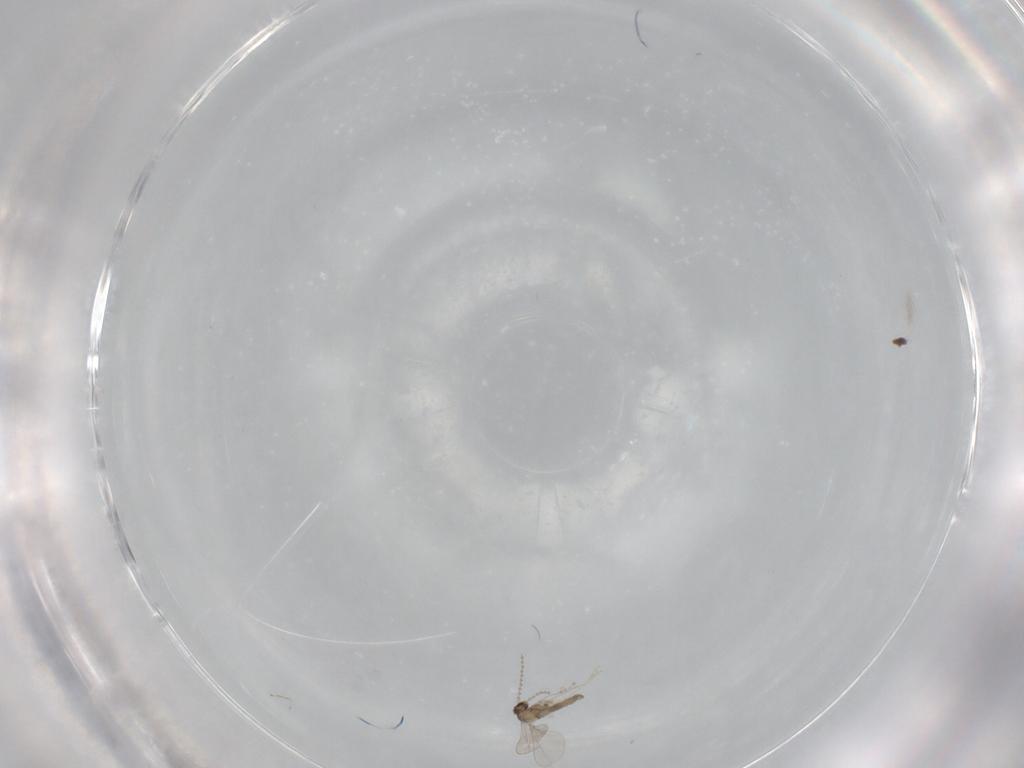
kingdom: Animalia
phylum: Arthropoda
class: Insecta
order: Diptera
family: Cecidomyiidae
